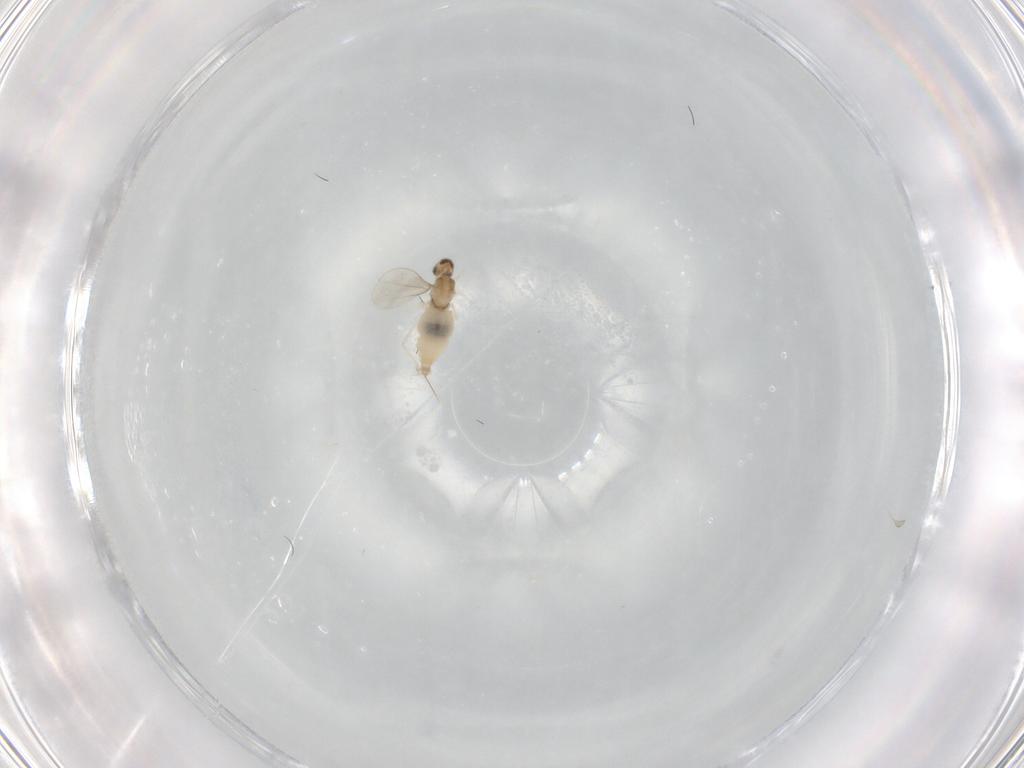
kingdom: Animalia
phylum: Arthropoda
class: Insecta
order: Diptera
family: Limoniidae
